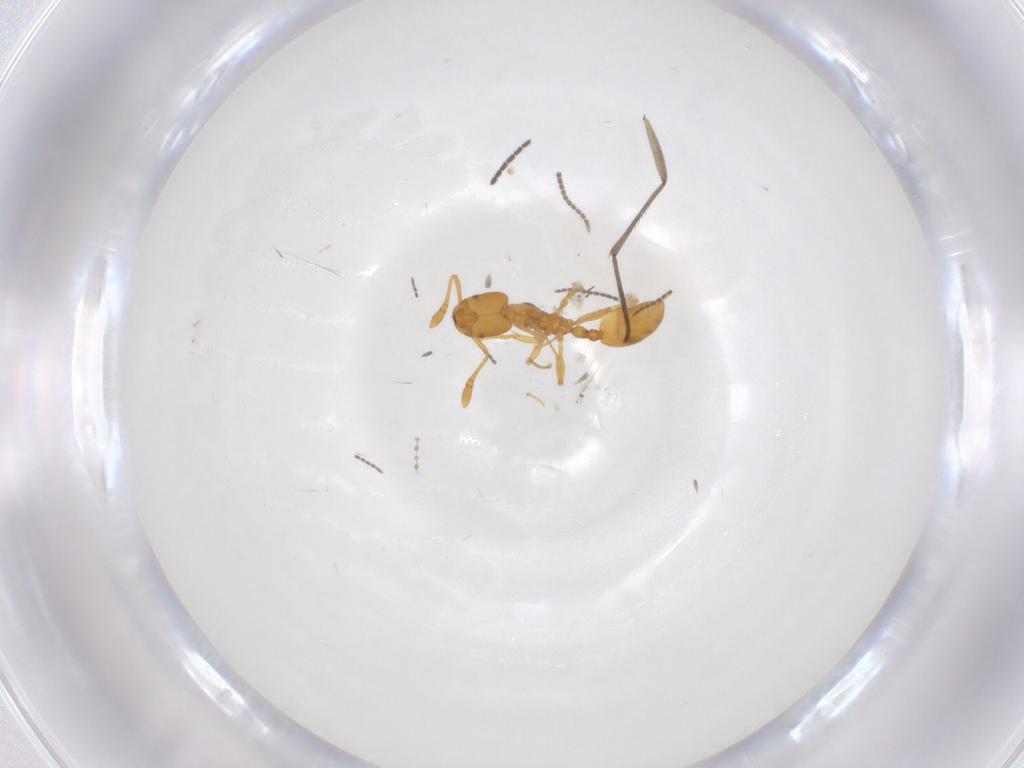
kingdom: Animalia
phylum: Arthropoda
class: Insecta
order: Hymenoptera
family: Formicidae
